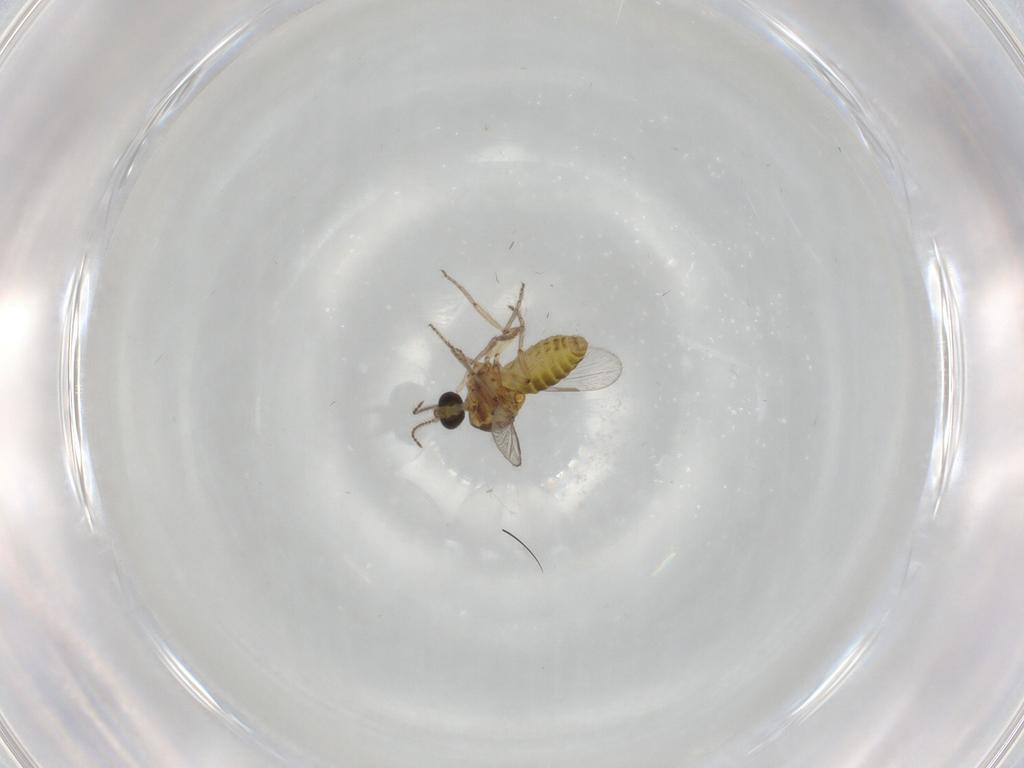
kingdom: Animalia
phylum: Arthropoda
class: Insecta
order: Diptera
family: Ceratopogonidae
